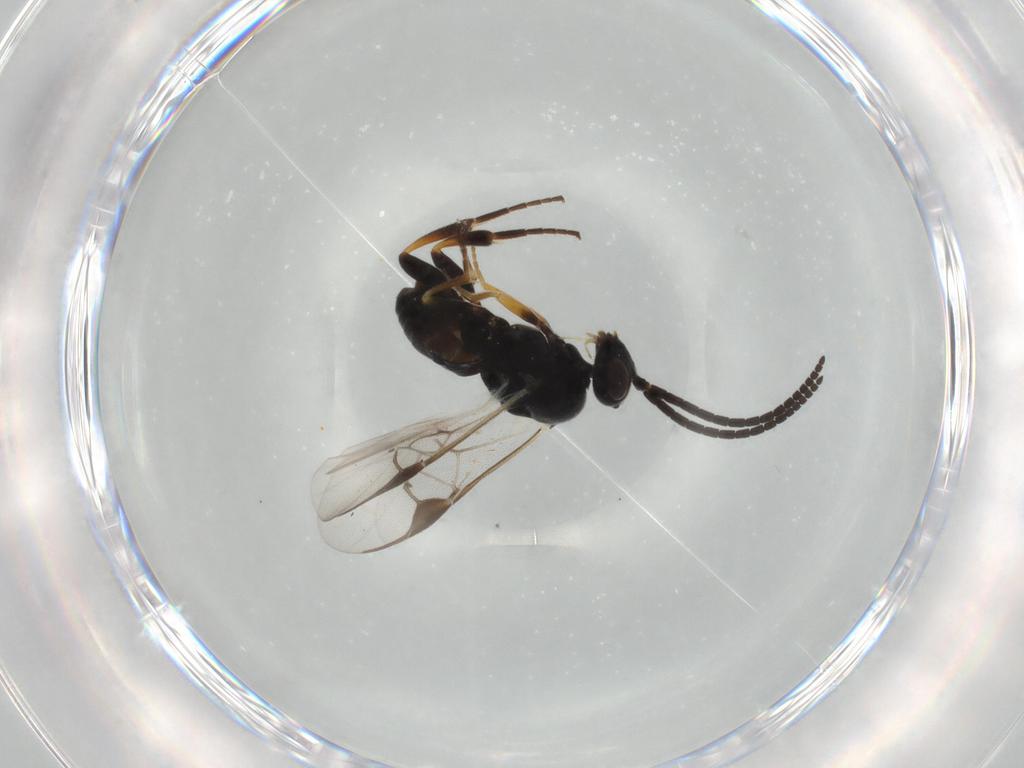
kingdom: Animalia
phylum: Arthropoda
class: Insecta
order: Hymenoptera
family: Braconidae
